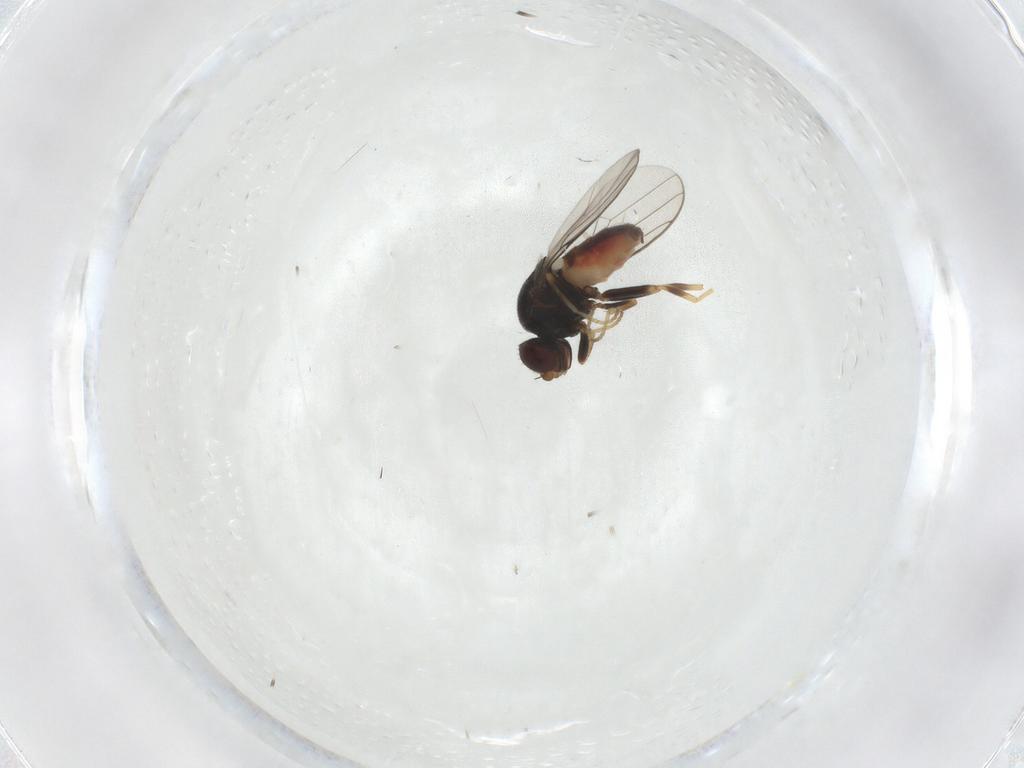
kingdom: Animalia
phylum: Arthropoda
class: Insecta
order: Diptera
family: Chloropidae
